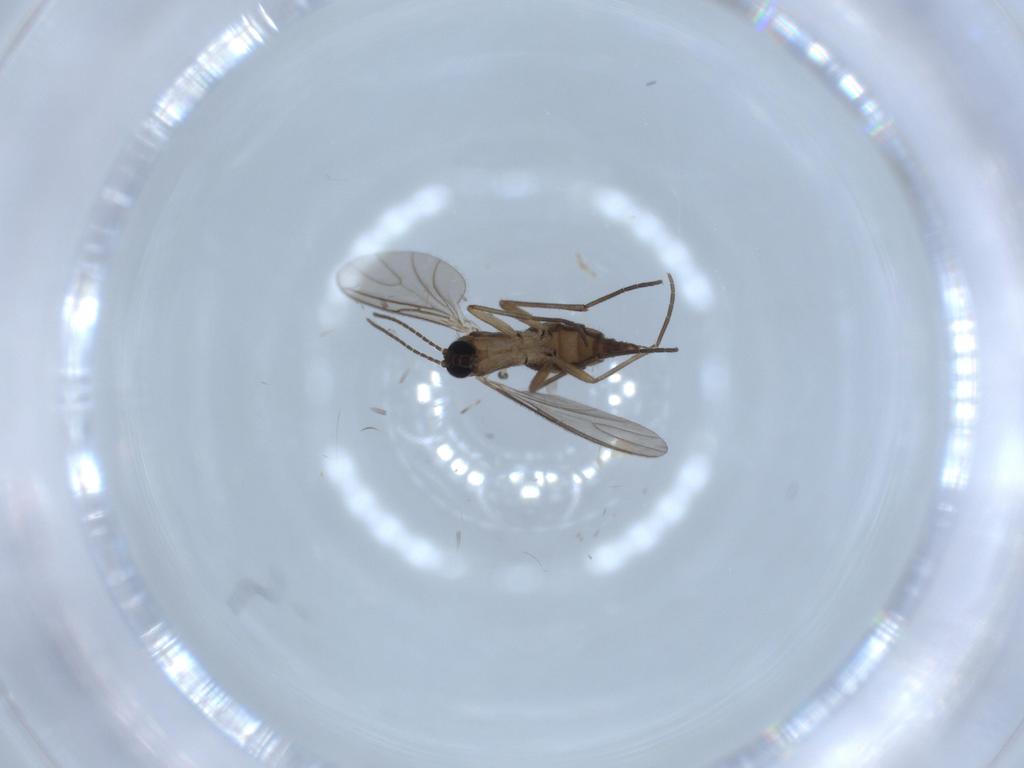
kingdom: Animalia
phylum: Arthropoda
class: Insecta
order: Diptera
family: Sciaridae
